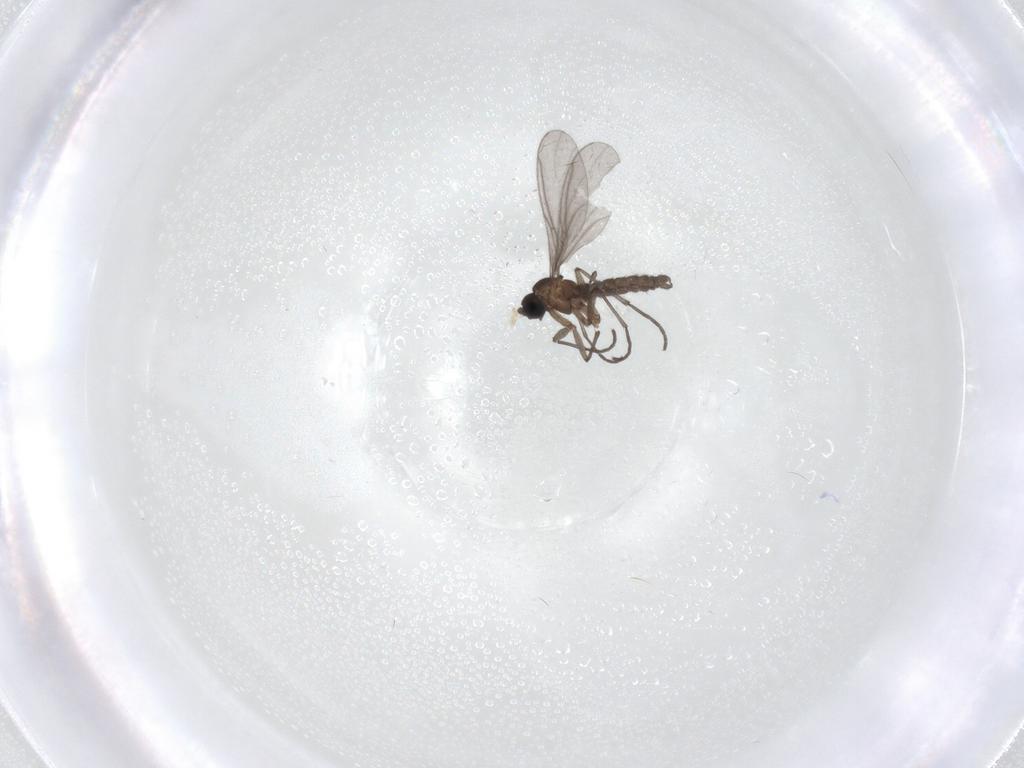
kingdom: Animalia
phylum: Arthropoda
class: Insecta
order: Diptera
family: Sciaridae
